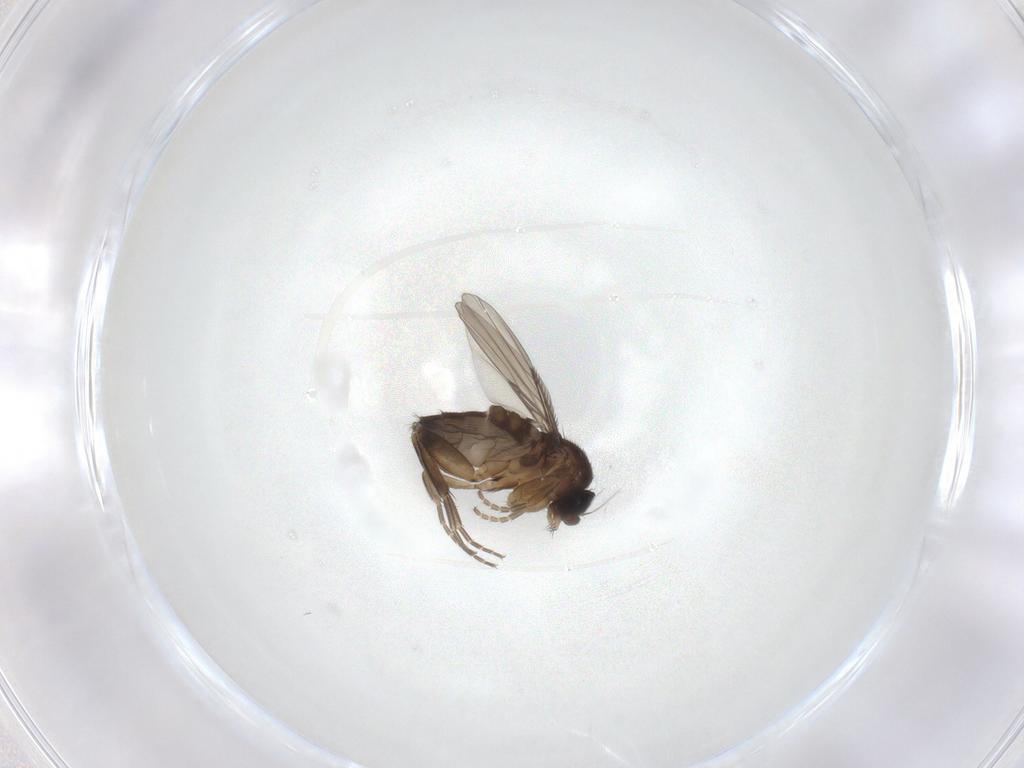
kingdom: Animalia
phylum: Arthropoda
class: Insecta
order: Diptera
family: Phoridae
